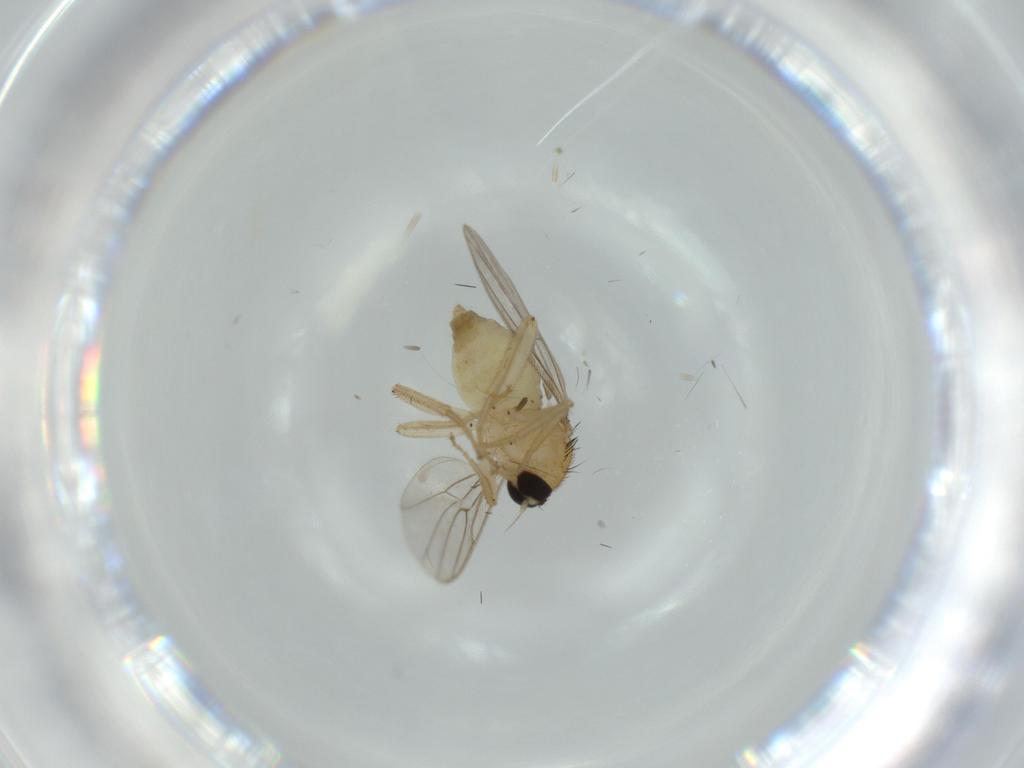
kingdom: Animalia
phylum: Arthropoda
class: Insecta
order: Diptera
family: Hybotidae
